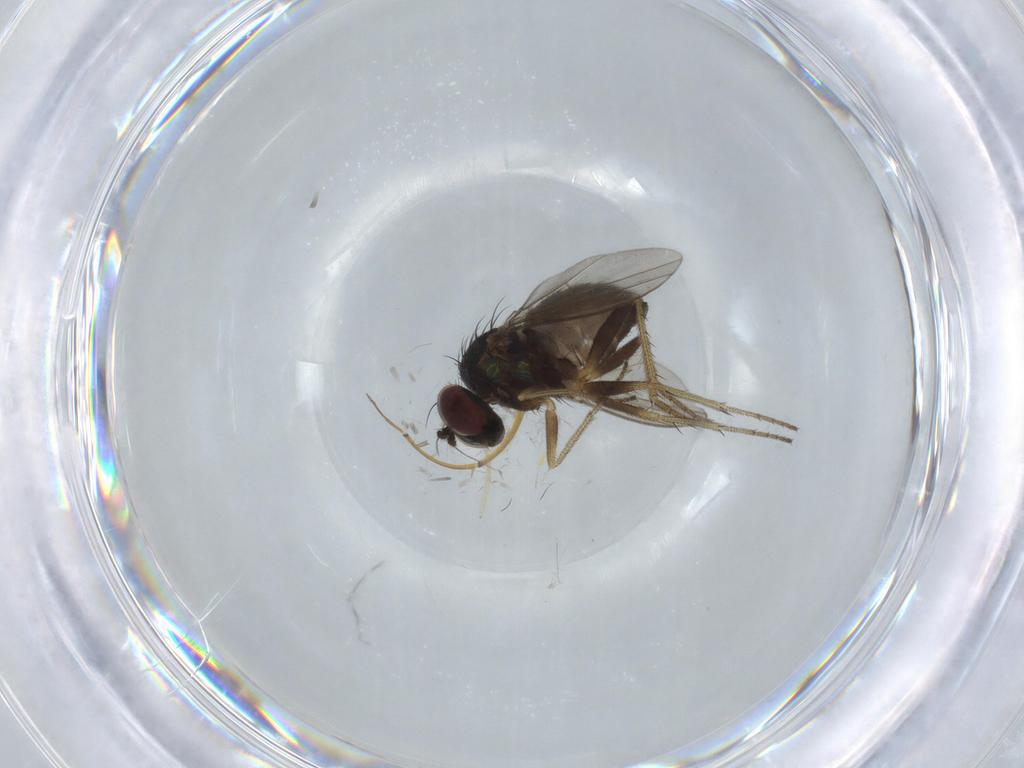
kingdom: Animalia
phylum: Arthropoda
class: Insecta
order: Diptera
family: Chironomidae
